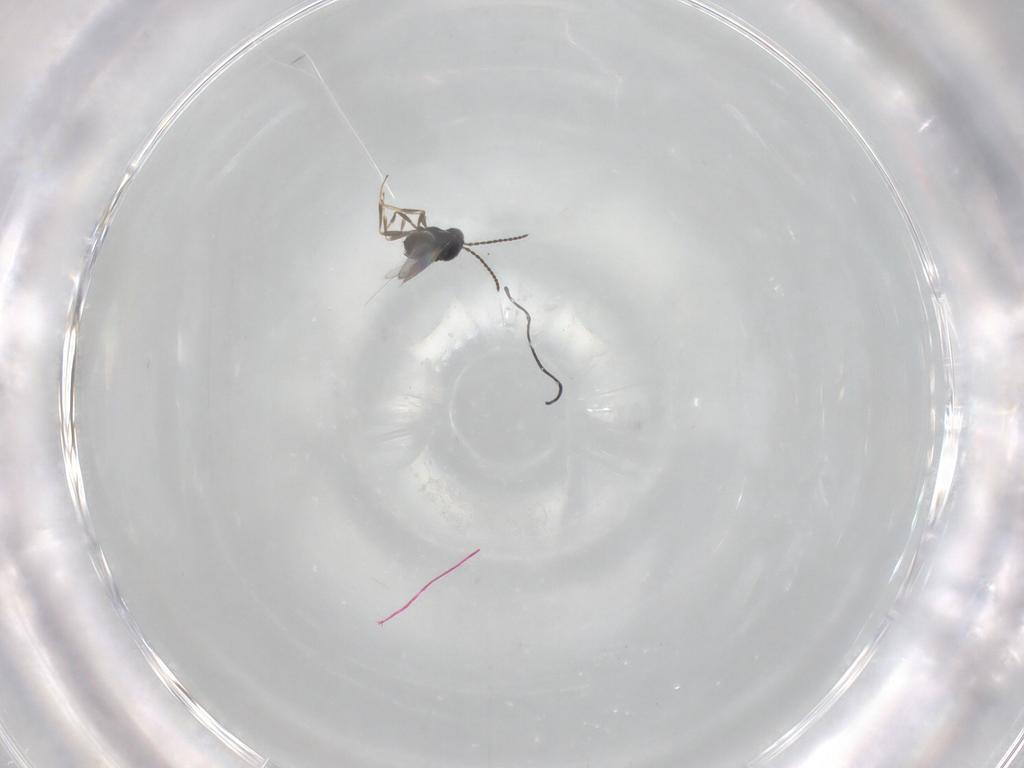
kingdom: Animalia
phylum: Arthropoda
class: Insecta
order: Hymenoptera
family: Scelionidae
